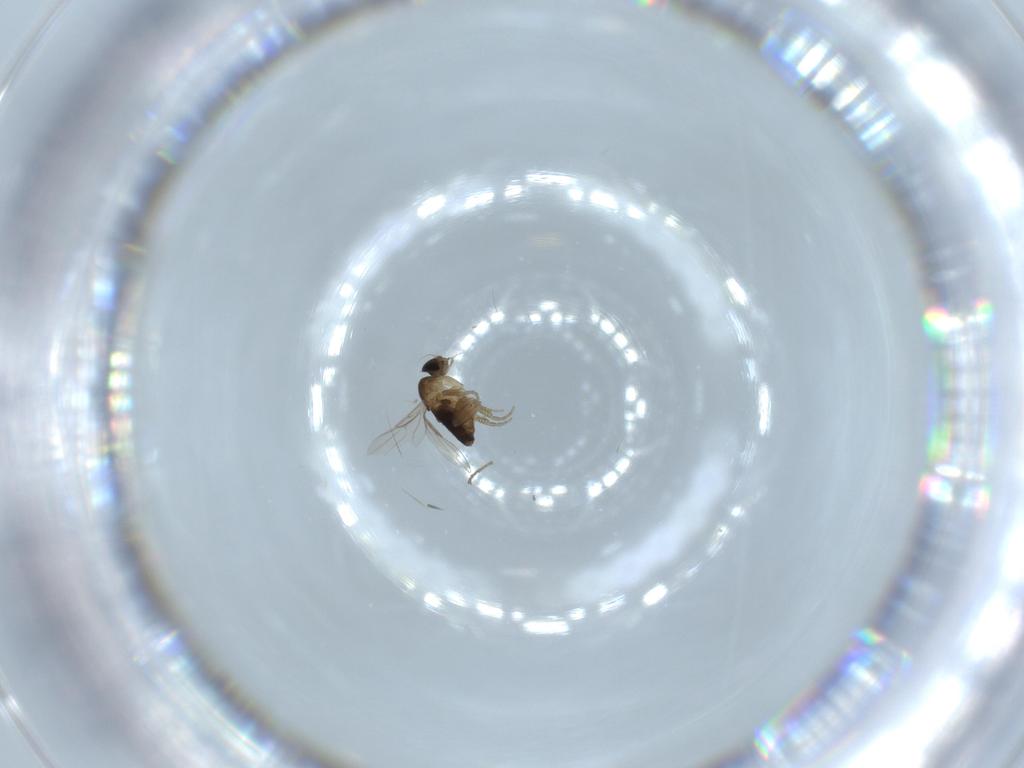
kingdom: Animalia
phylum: Arthropoda
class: Insecta
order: Diptera
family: Phoridae
